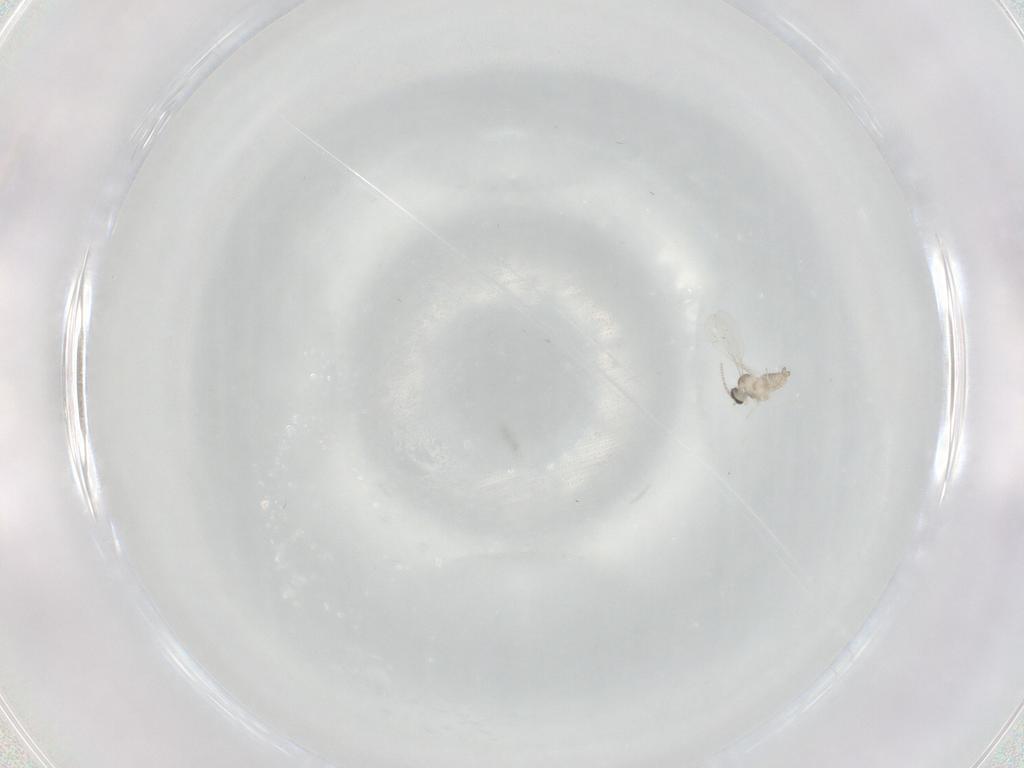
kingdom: Animalia
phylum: Arthropoda
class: Insecta
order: Diptera
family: Cecidomyiidae
